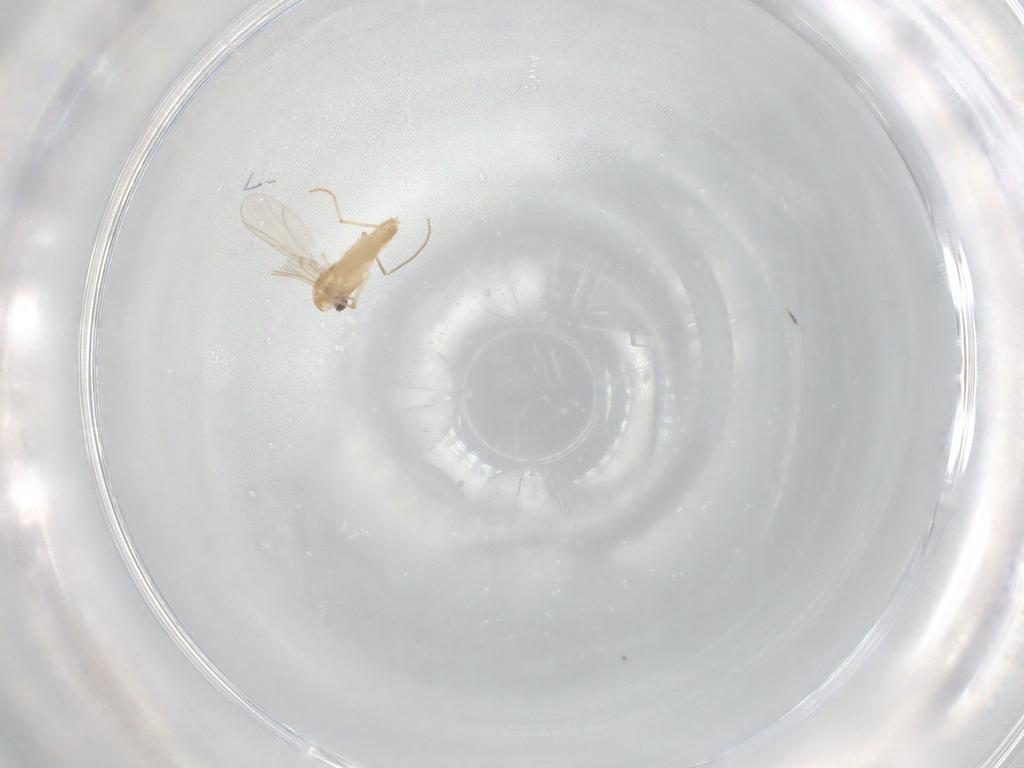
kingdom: Animalia
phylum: Arthropoda
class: Insecta
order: Diptera
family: Chironomidae
